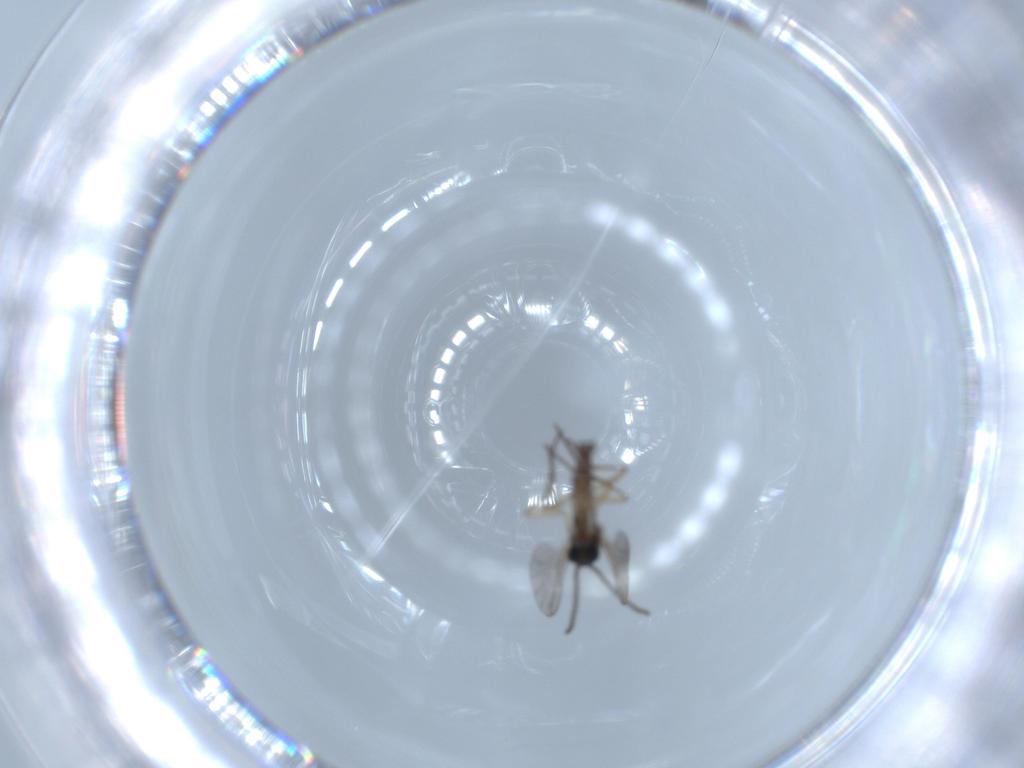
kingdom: Animalia
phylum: Arthropoda
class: Insecta
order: Diptera
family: Sciaridae
